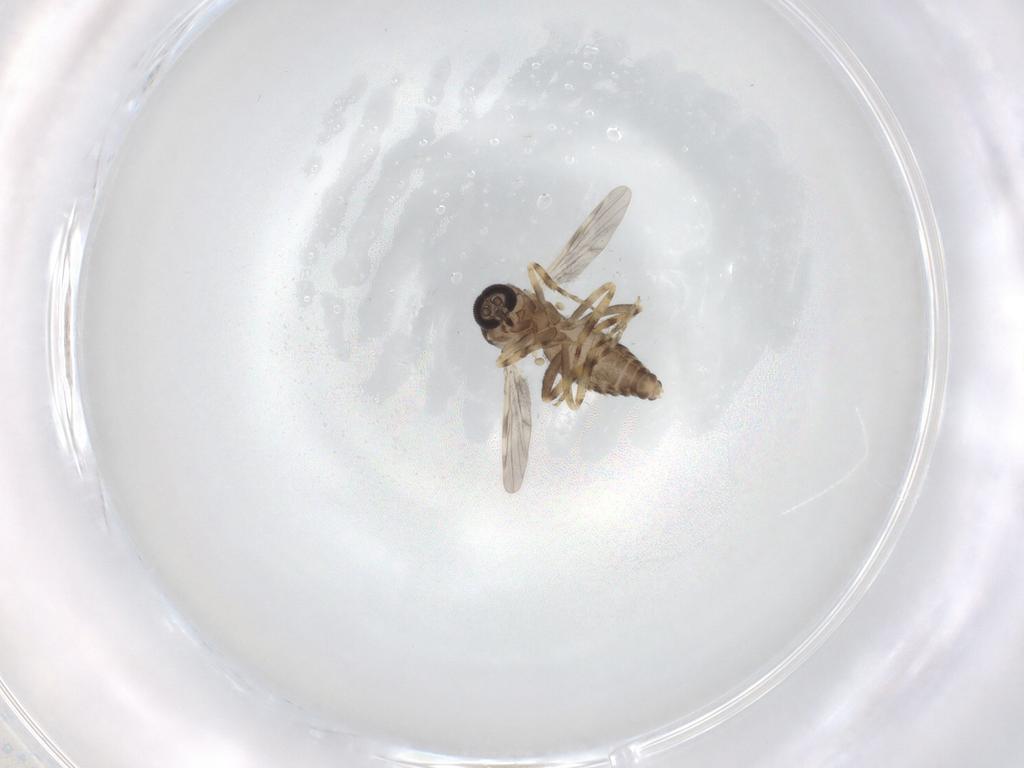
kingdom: Animalia
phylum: Arthropoda
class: Insecta
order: Diptera
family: Ceratopogonidae
